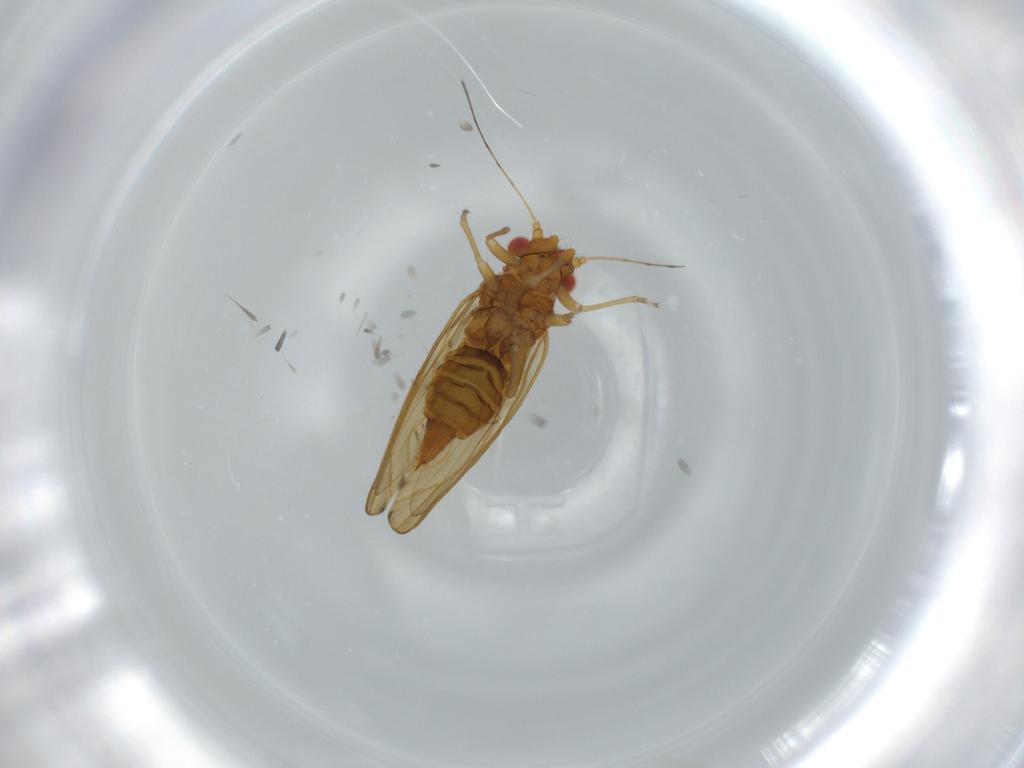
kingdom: Animalia
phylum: Arthropoda
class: Insecta
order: Hemiptera
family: Psylloidea_incertae_sedis
